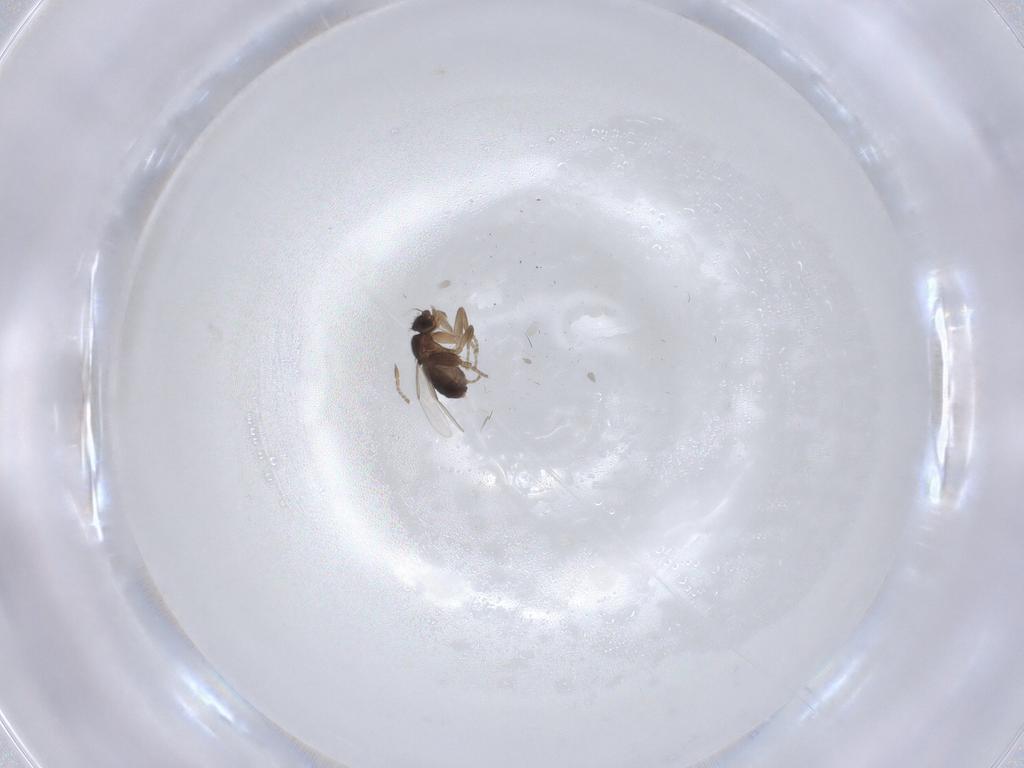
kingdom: Animalia
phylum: Arthropoda
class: Insecta
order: Diptera
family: Phoridae
